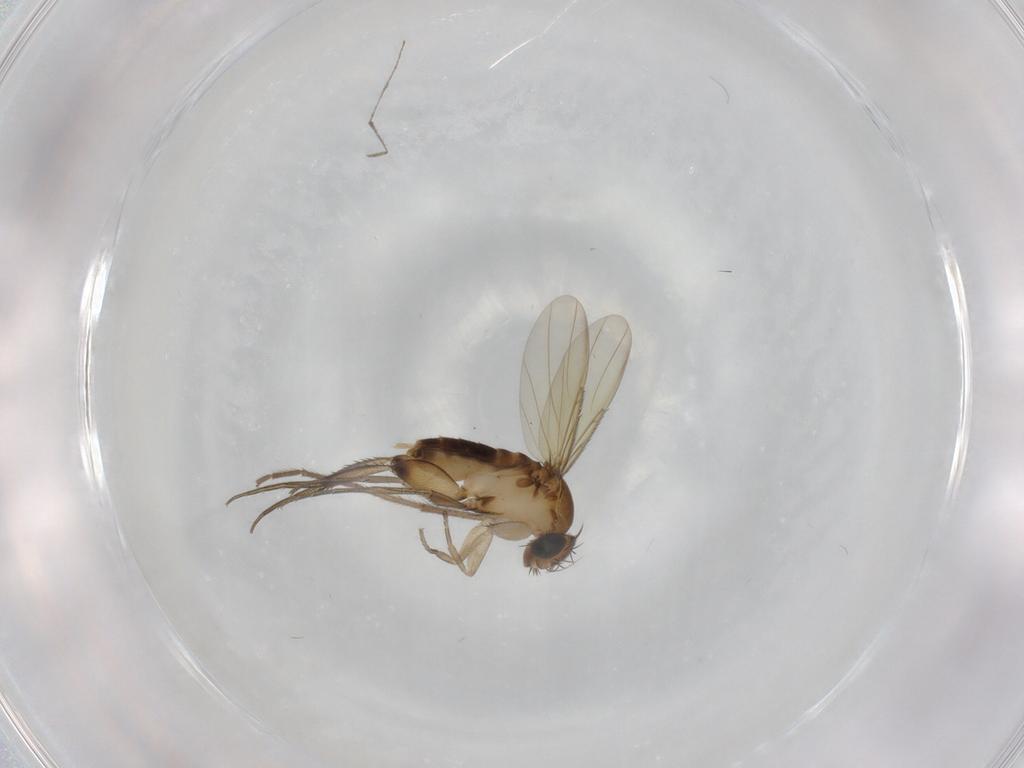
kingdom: Animalia
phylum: Arthropoda
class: Insecta
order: Diptera
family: Phoridae
